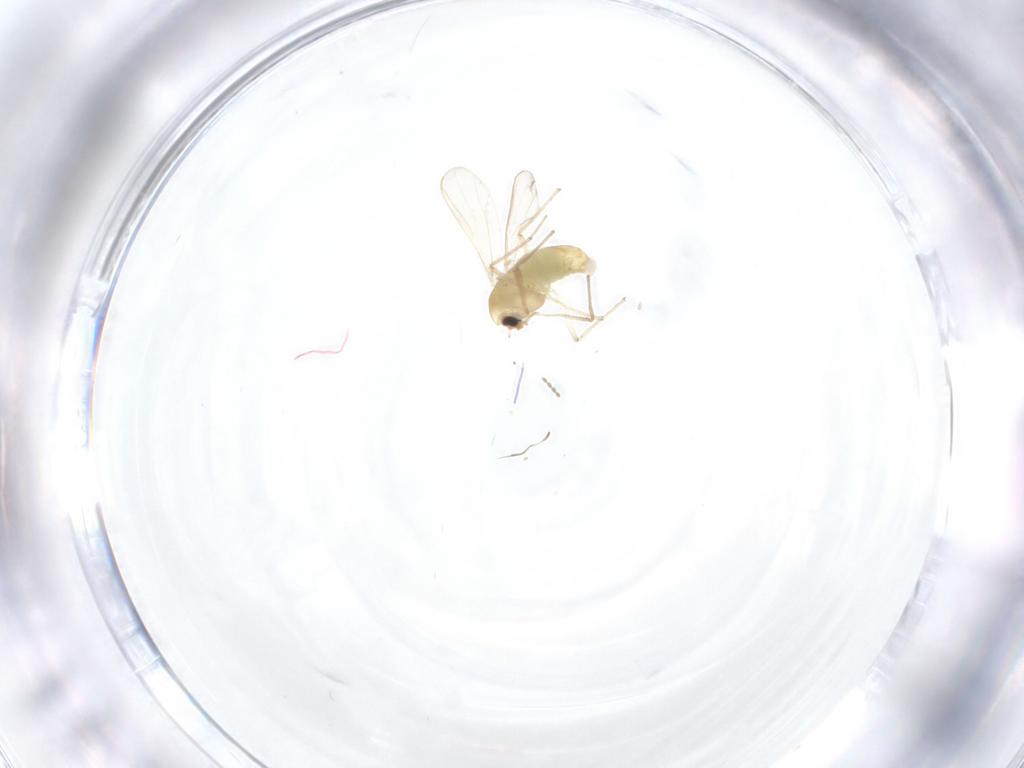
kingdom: Animalia
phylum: Arthropoda
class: Insecta
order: Diptera
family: Chironomidae
